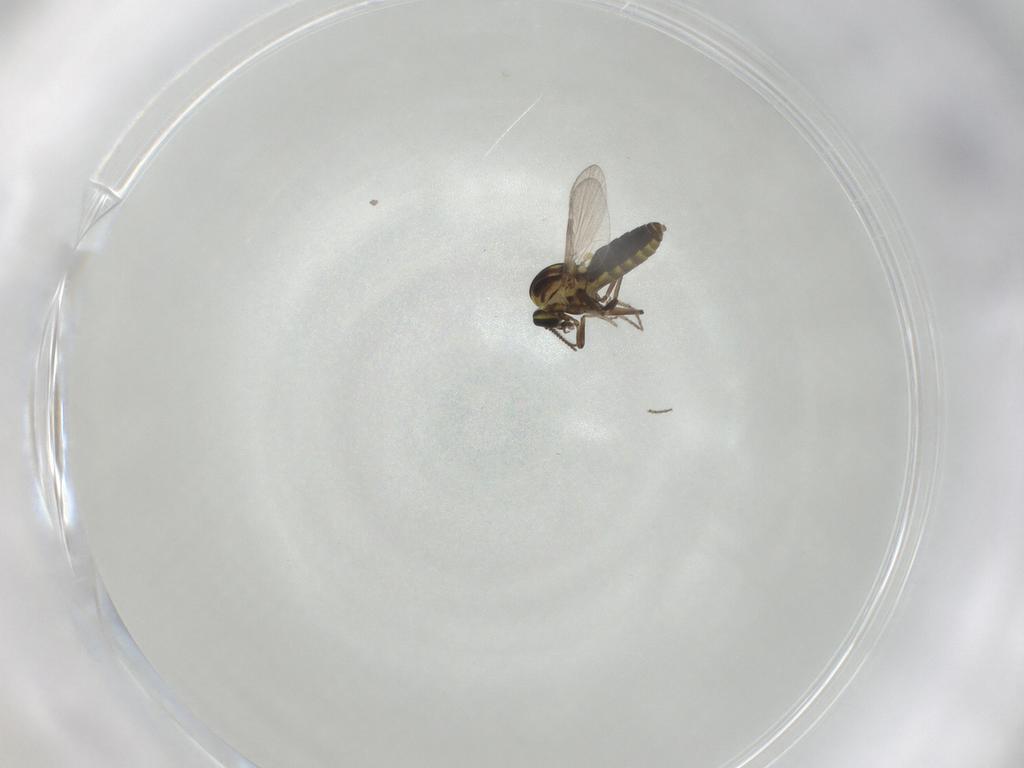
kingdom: Animalia
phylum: Arthropoda
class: Insecta
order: Diptera
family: Ceratopogonidae
